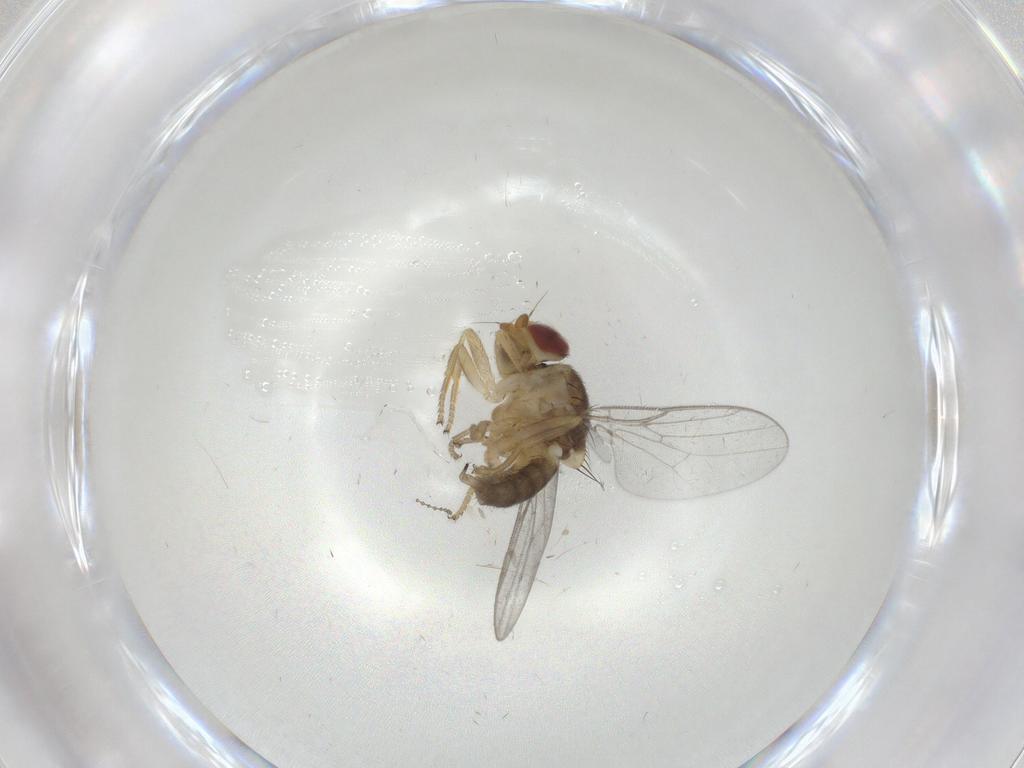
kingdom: Animalia
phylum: Arthropoda
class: Insecta
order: Diptera
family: Chloropidae
